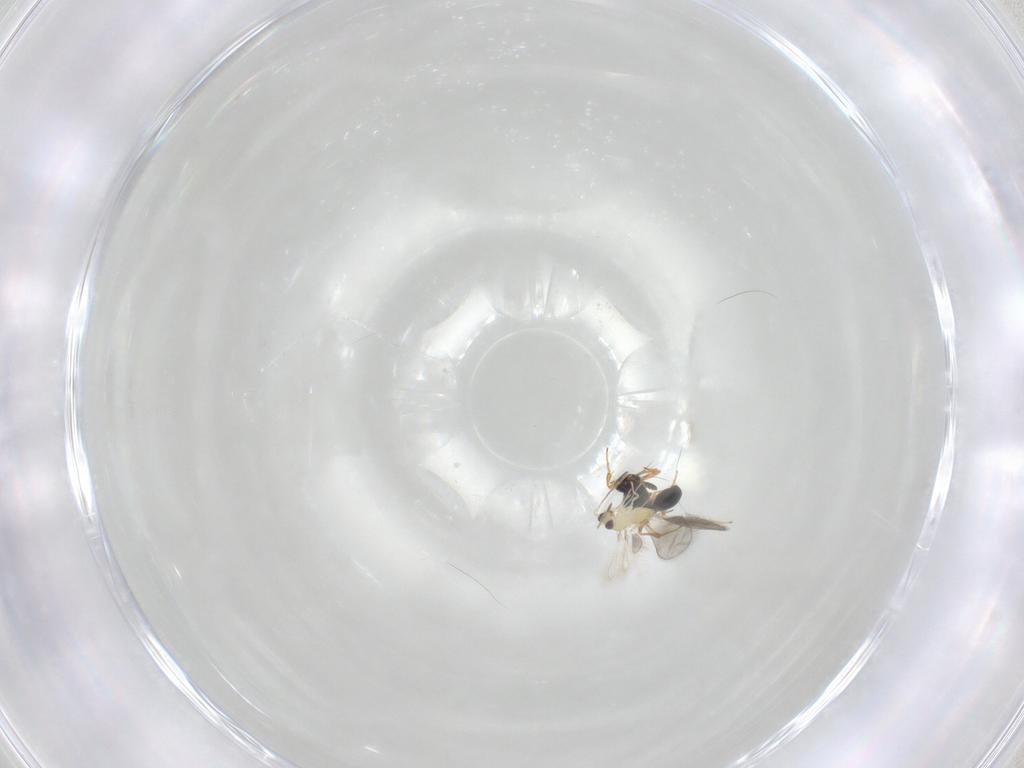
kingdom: Animalia
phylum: Arthropoda
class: Insecta
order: Hymenoptera
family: Mymaridae
